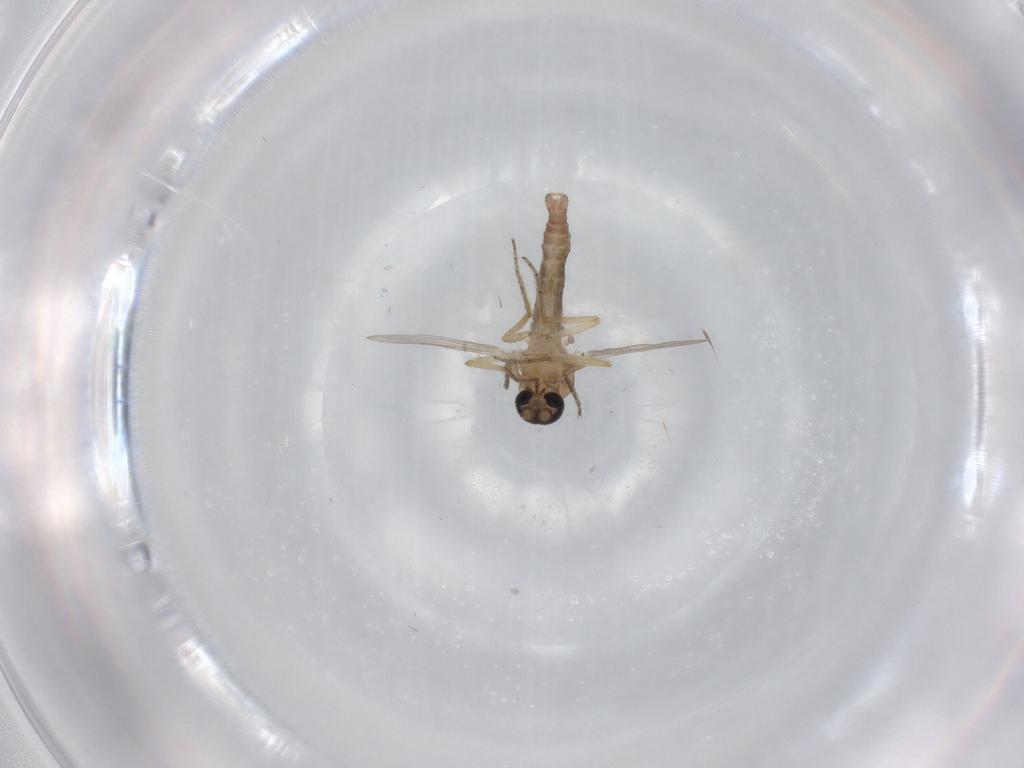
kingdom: Animalia
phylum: Arthropoda
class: Insecta
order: Diptera
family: Ceratopogonidae
